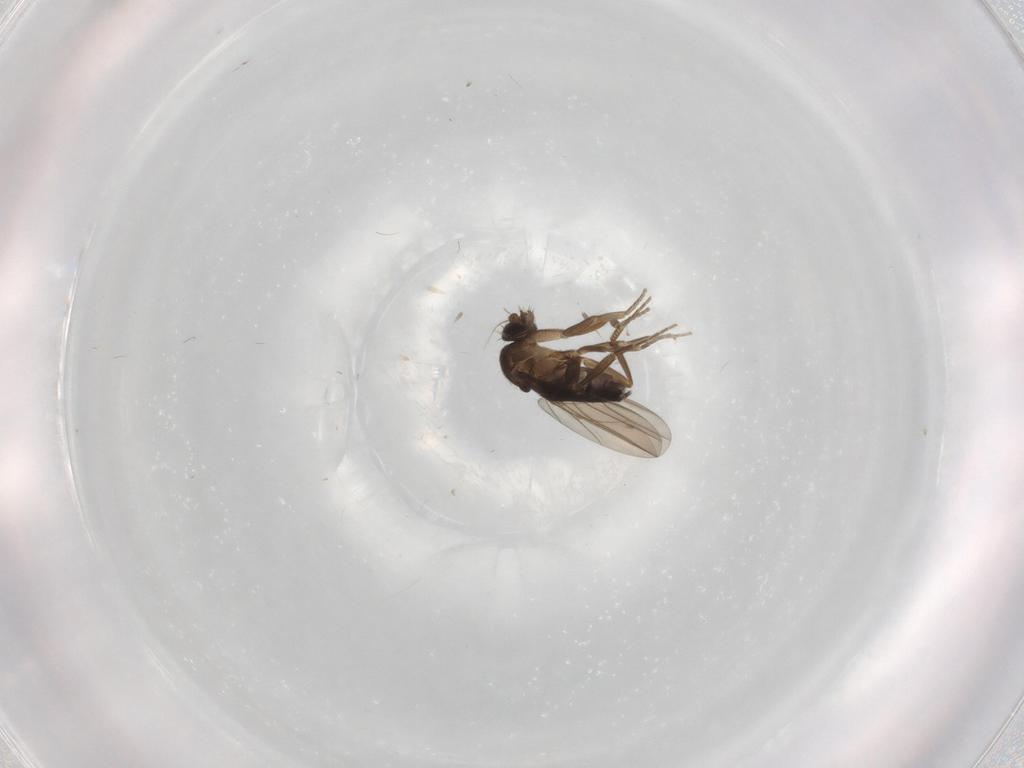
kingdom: Animalia
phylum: Arthropoda
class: Insecta
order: Diptera
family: Phoridae
